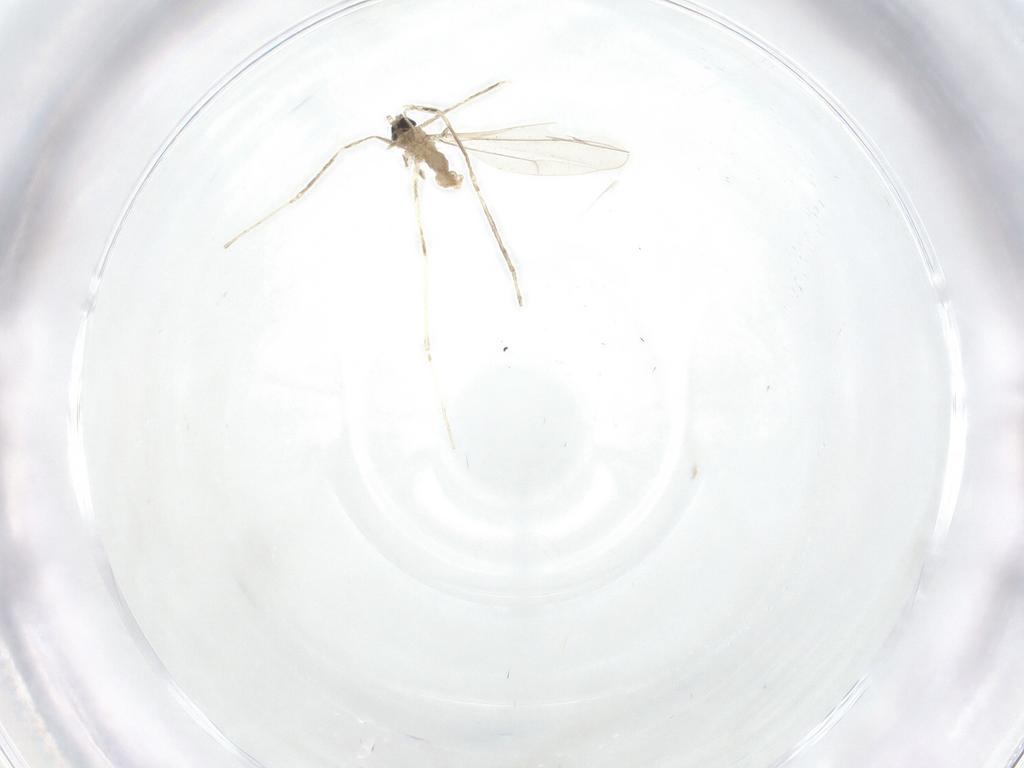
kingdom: Animalia
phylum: Arthropoda
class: Insecta
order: Diptera
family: Cecidomyiidae
